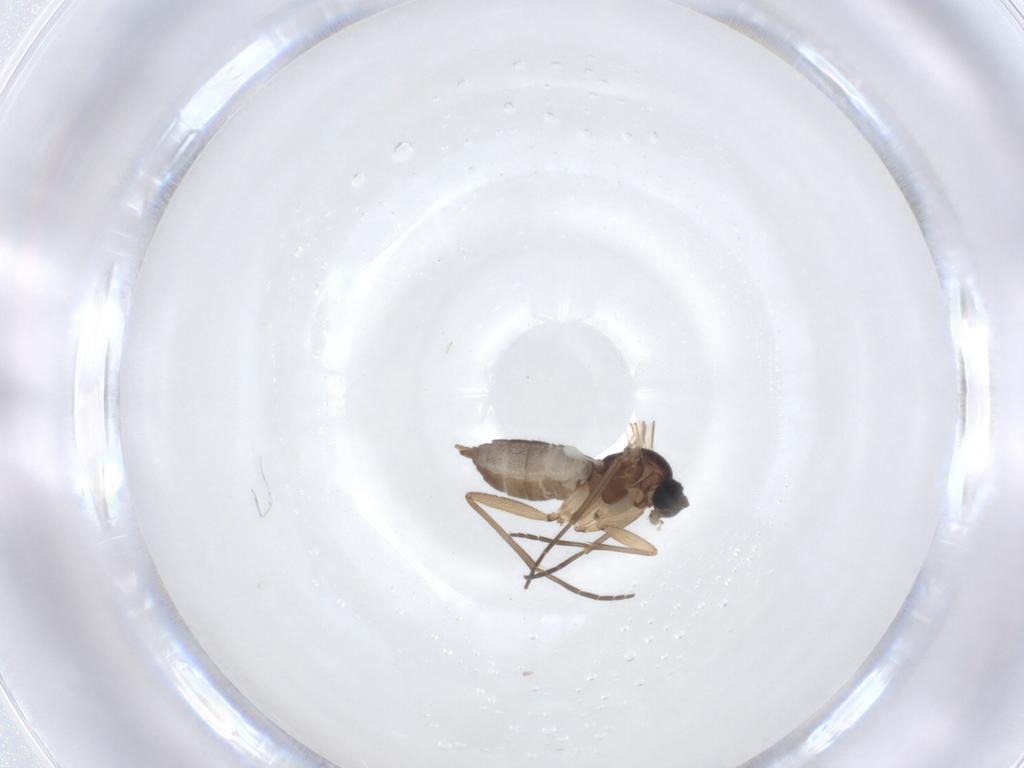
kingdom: Animalia
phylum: Arthropoda
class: Insecta
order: Diptera
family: Sciaridae
